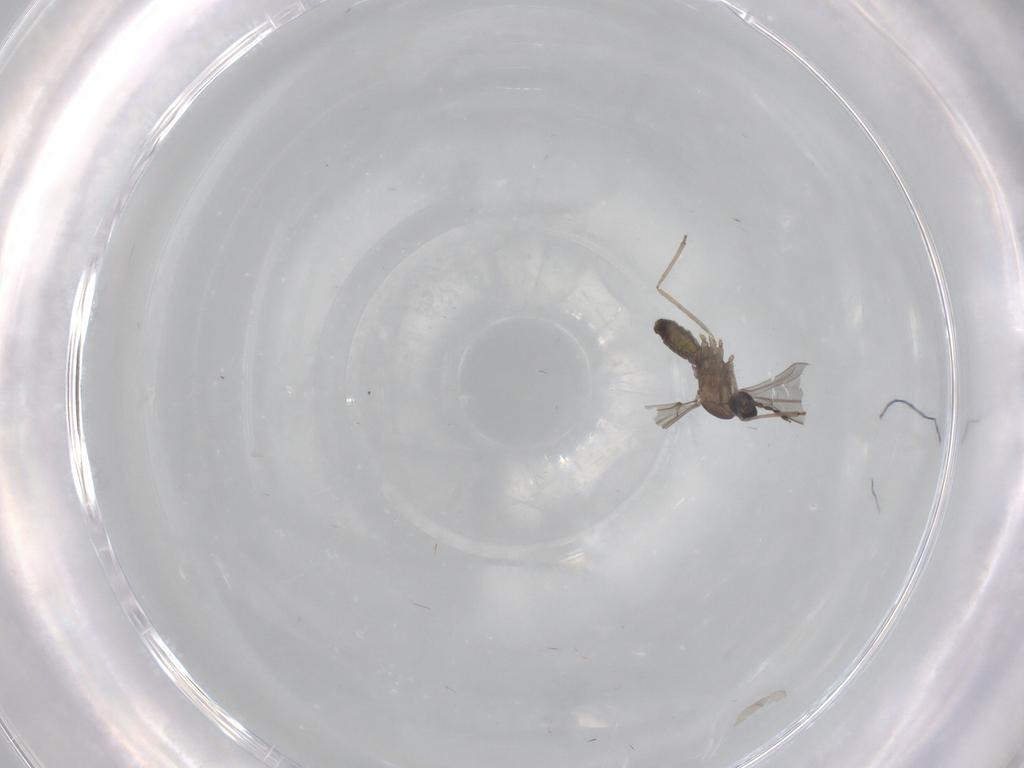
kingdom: Animalia
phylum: Arthropoda
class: Insecta
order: Diptera
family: Cecidomyiidae
